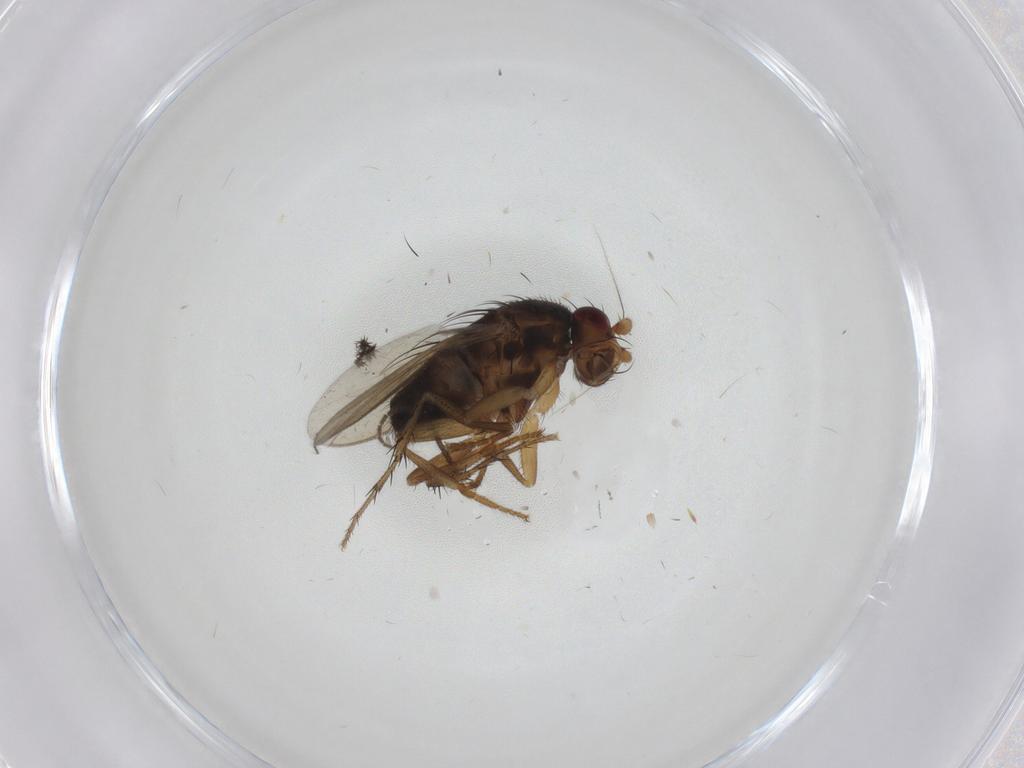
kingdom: Animalia
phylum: Arthropoda
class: Insecta
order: Diptera
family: Sphaeroceridae
